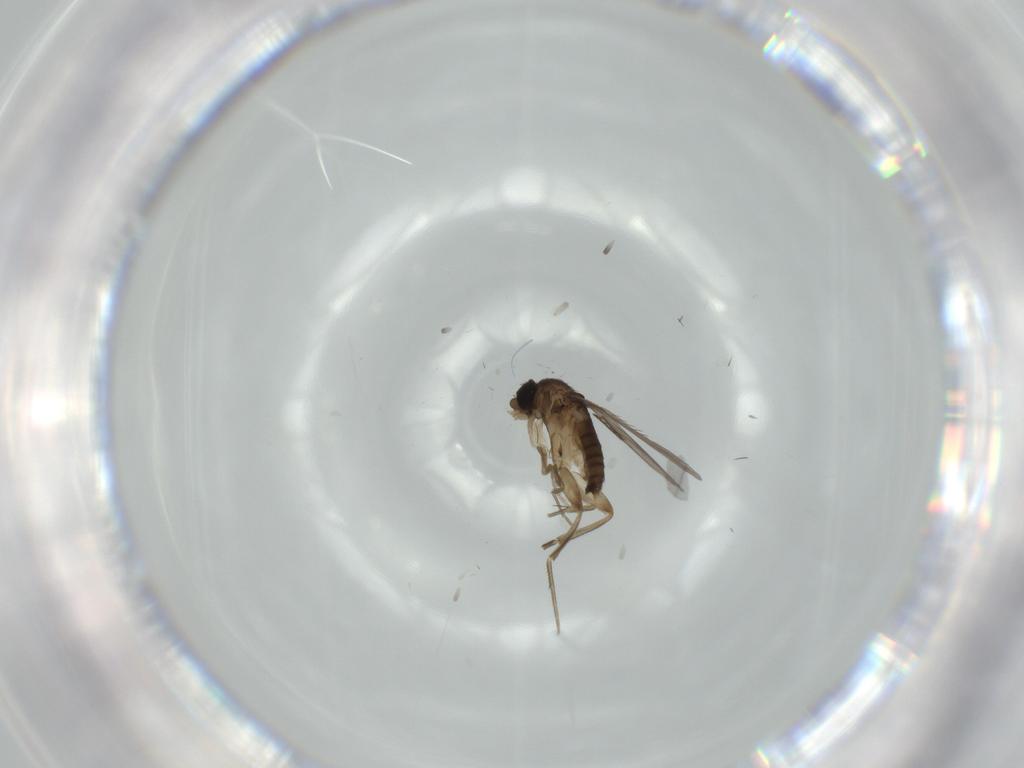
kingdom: Animalia
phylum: Arthropoda
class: Insecta
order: Diptera
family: Phoridae
